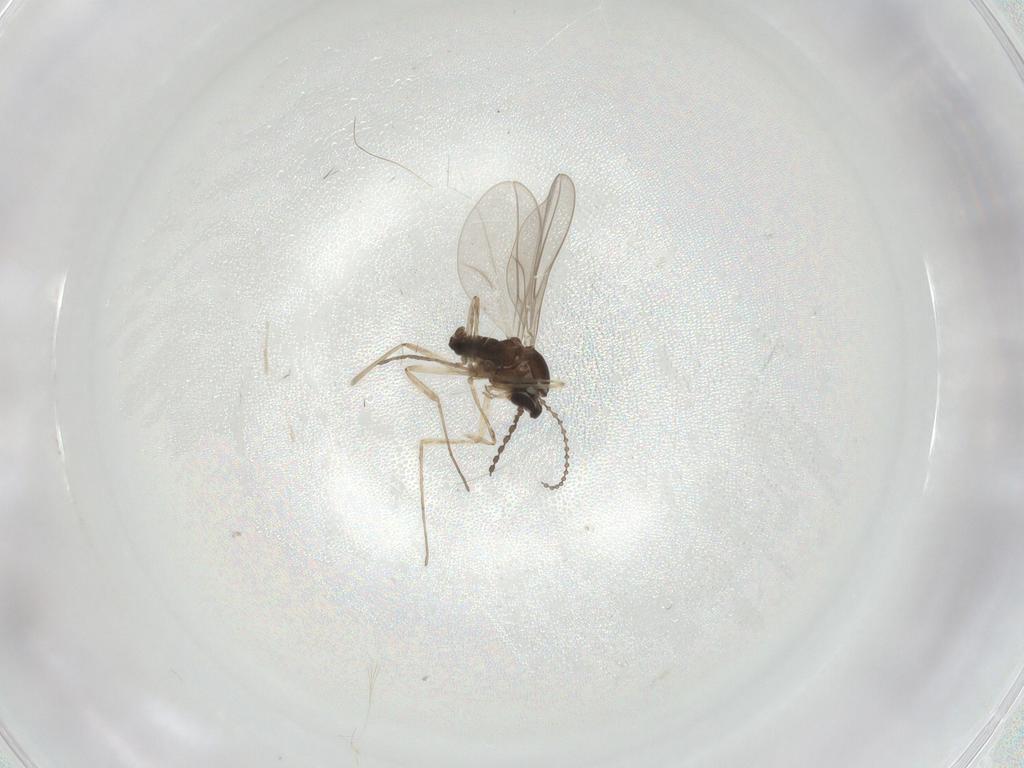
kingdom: Animalia
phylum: Arthropoda
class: Insecta
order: Diptera
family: Cecidomyiidae
